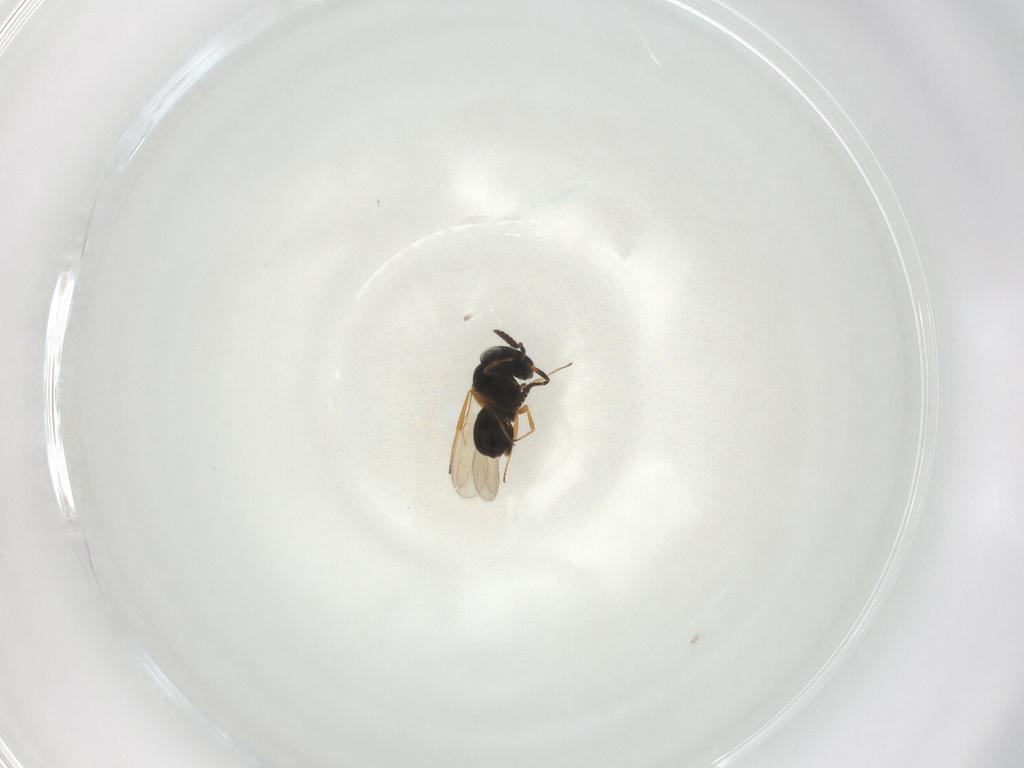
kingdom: Animalia
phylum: Arthropoda
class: Insecta
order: Hymenoptera
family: Scelionidae
